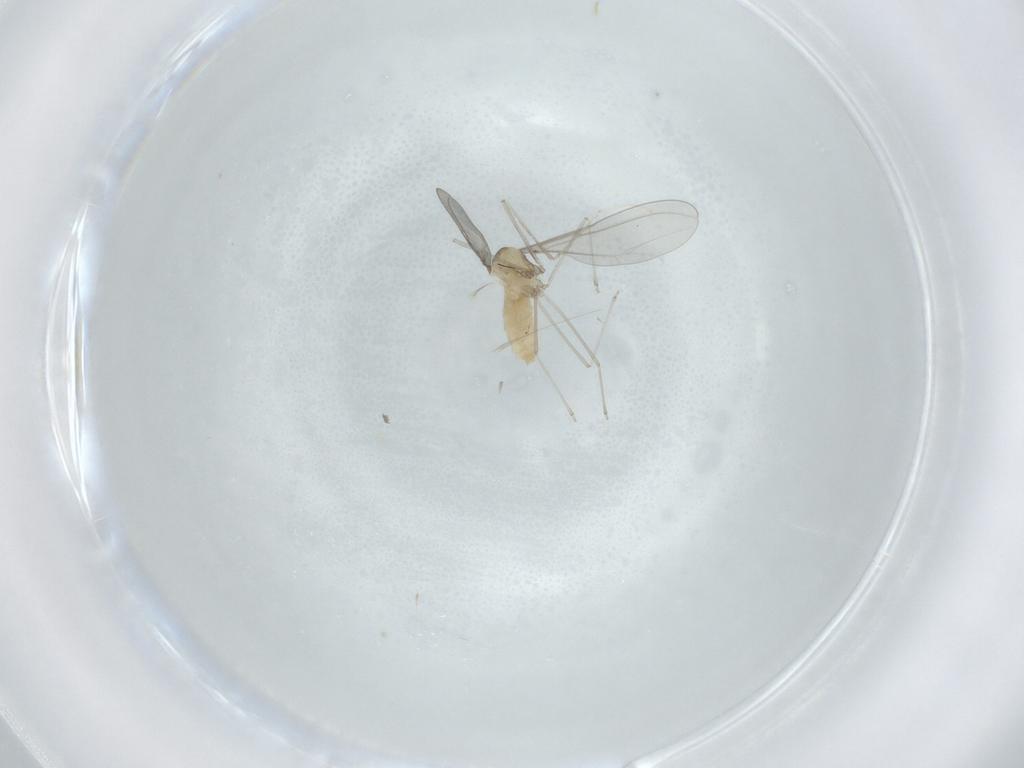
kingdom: Animalia
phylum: Arthropoda
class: Insecta
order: Diptera
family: Cecidomyiidae
